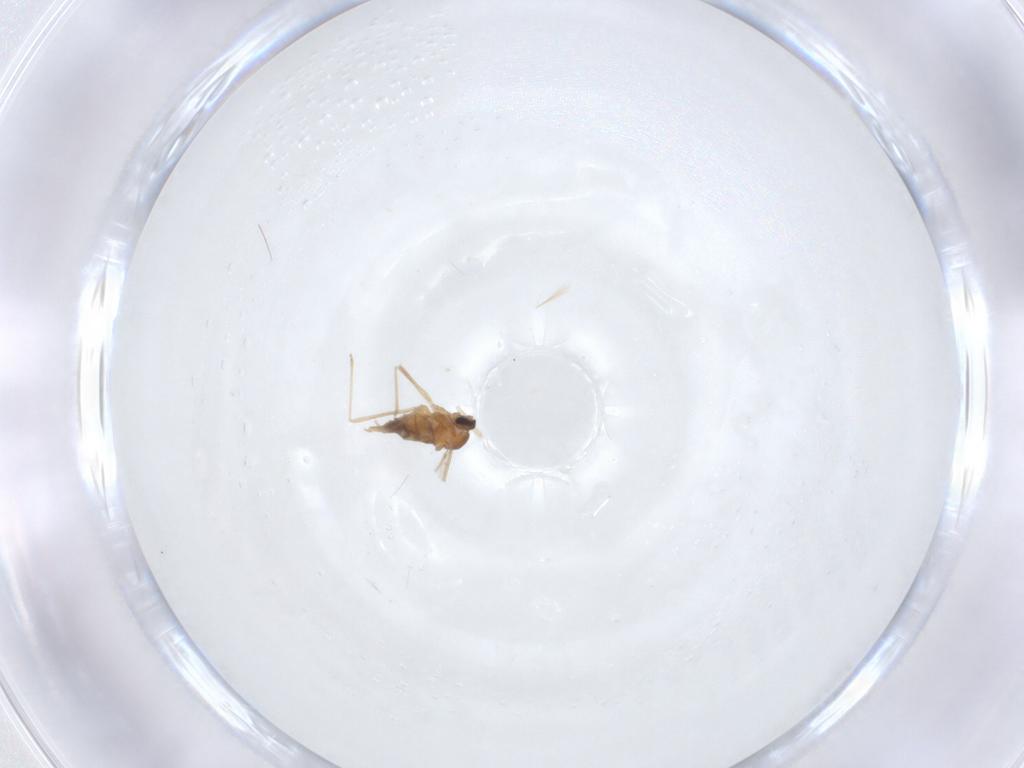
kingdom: Animalia
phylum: Arthropoda
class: Insecta
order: Diptera
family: Cecidomyiidae
